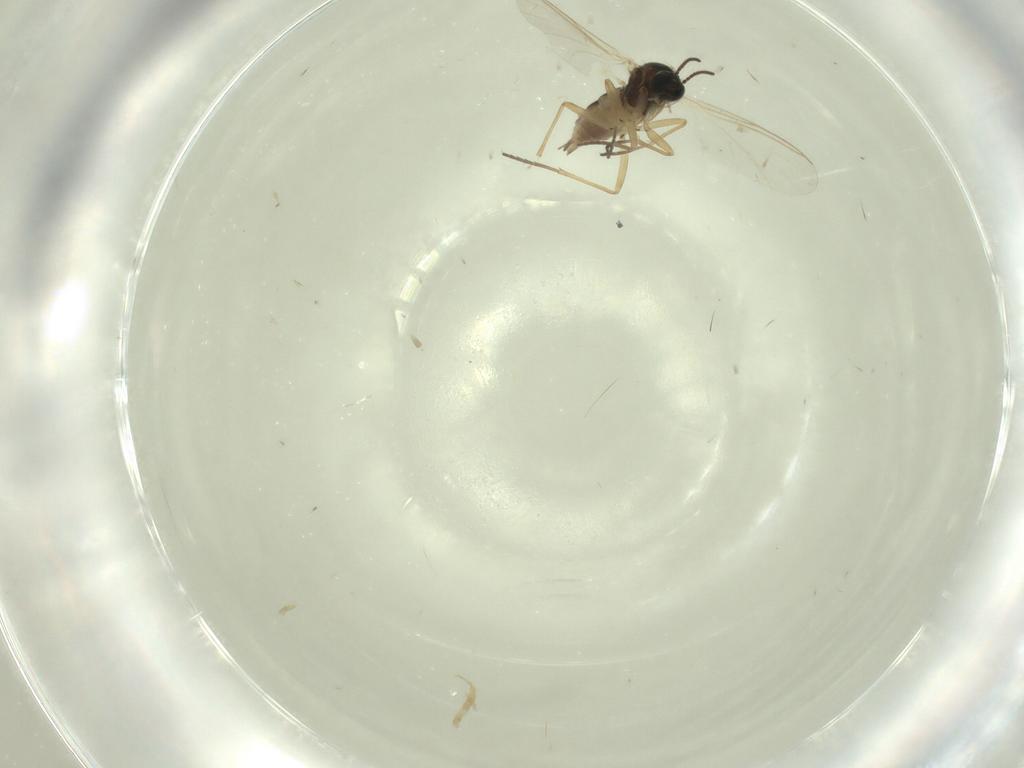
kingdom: Animalia
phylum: Arthropoda
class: Insecta
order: Diptera
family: Sciaridae
